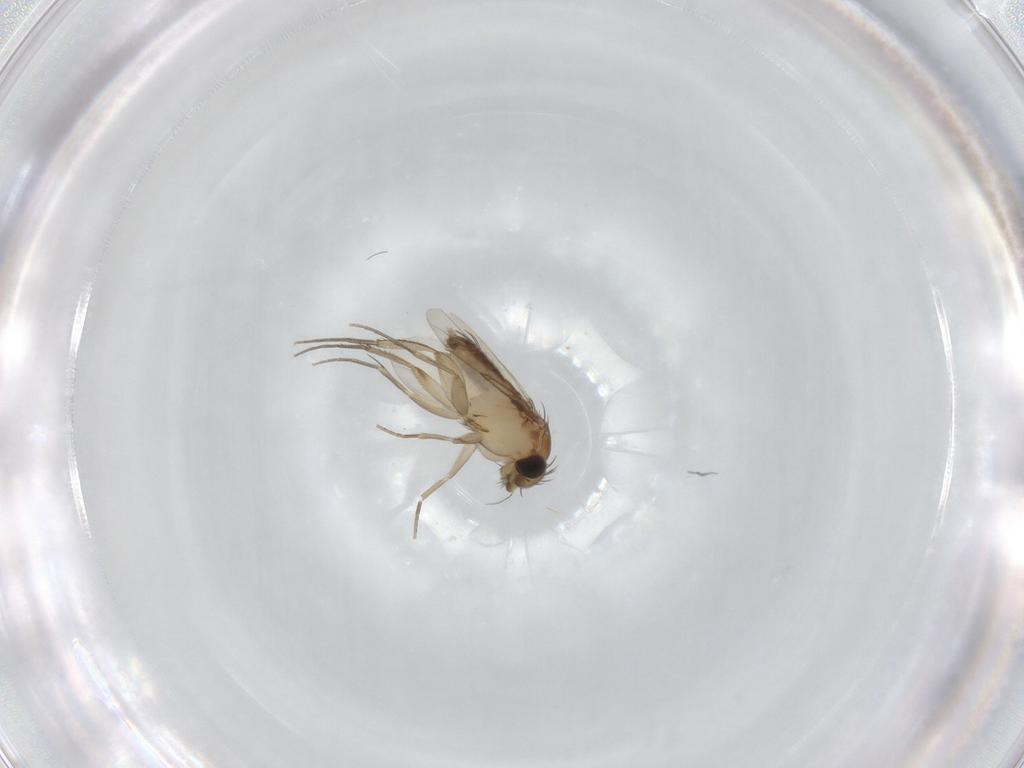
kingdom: Animalia
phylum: Arthropoda
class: Insecta
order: Diptera
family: Phoridae
